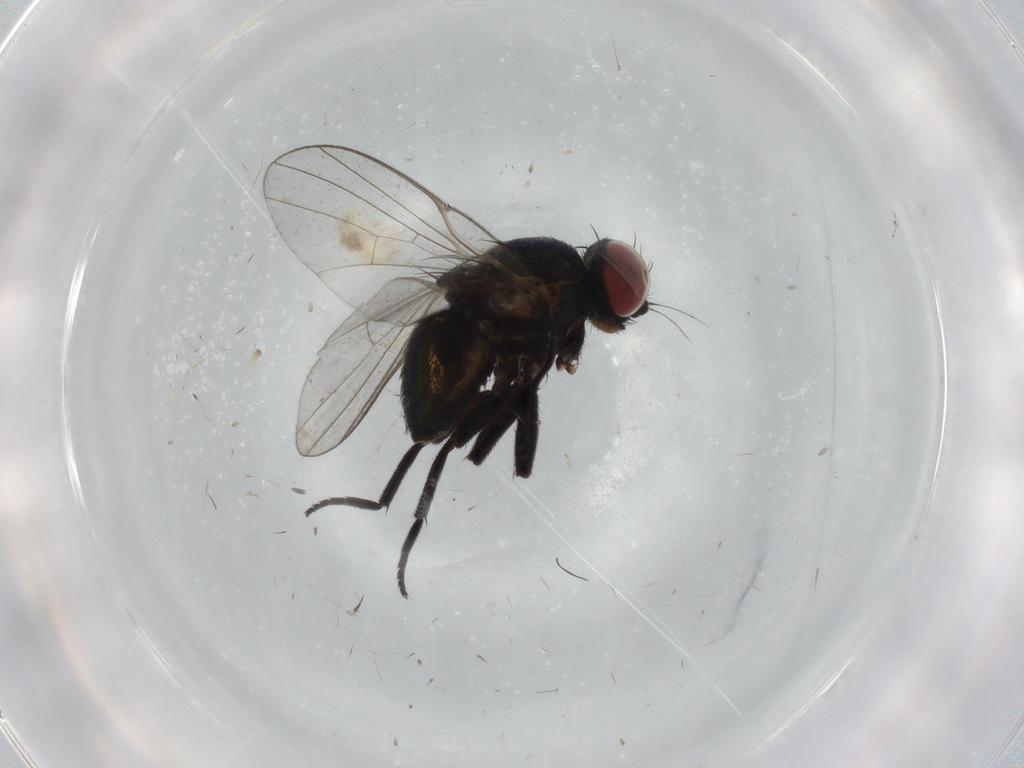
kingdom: Animalia
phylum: Arthropoda
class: Insecta
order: Diptera
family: Agromyzidae
